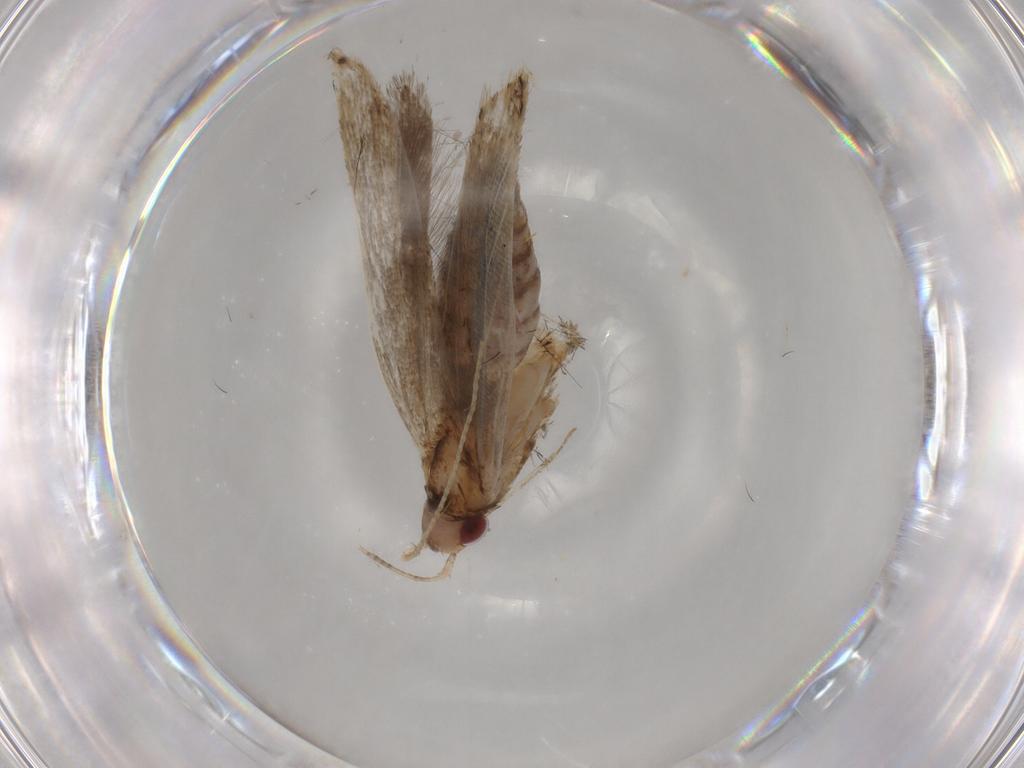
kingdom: Animalia
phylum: Arthropoda
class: Insecta
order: Lepidoptera
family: Gelechiidae
